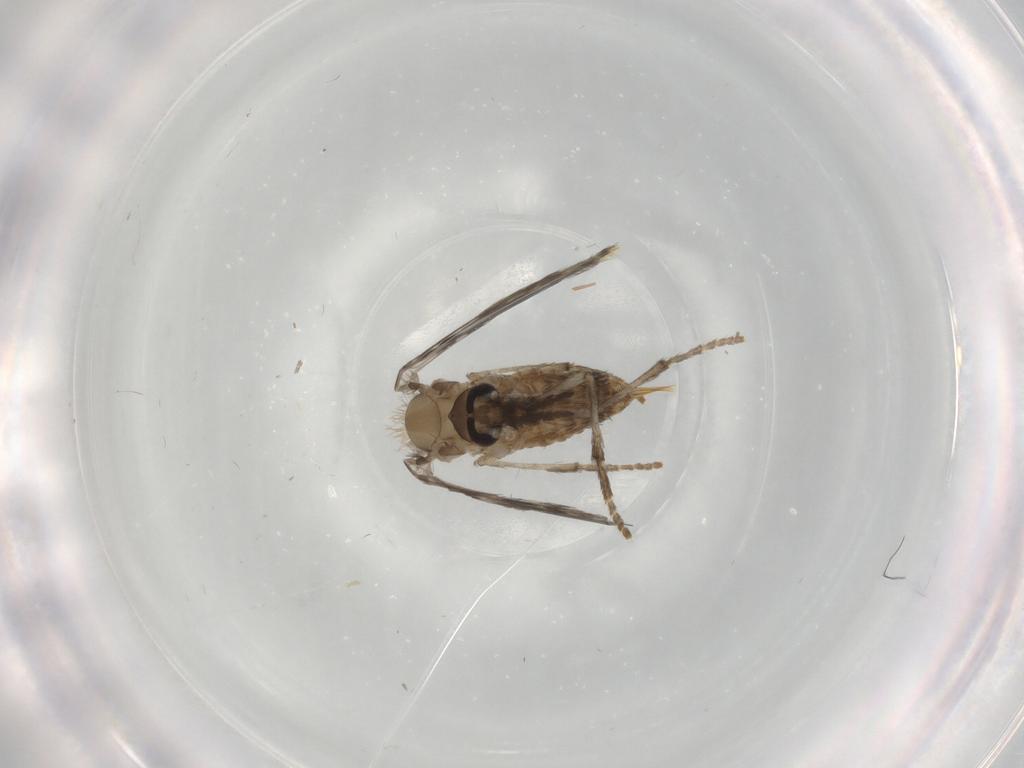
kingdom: Animalia
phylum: Arthropoda
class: Insecta
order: Diptera
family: Psychodidae
